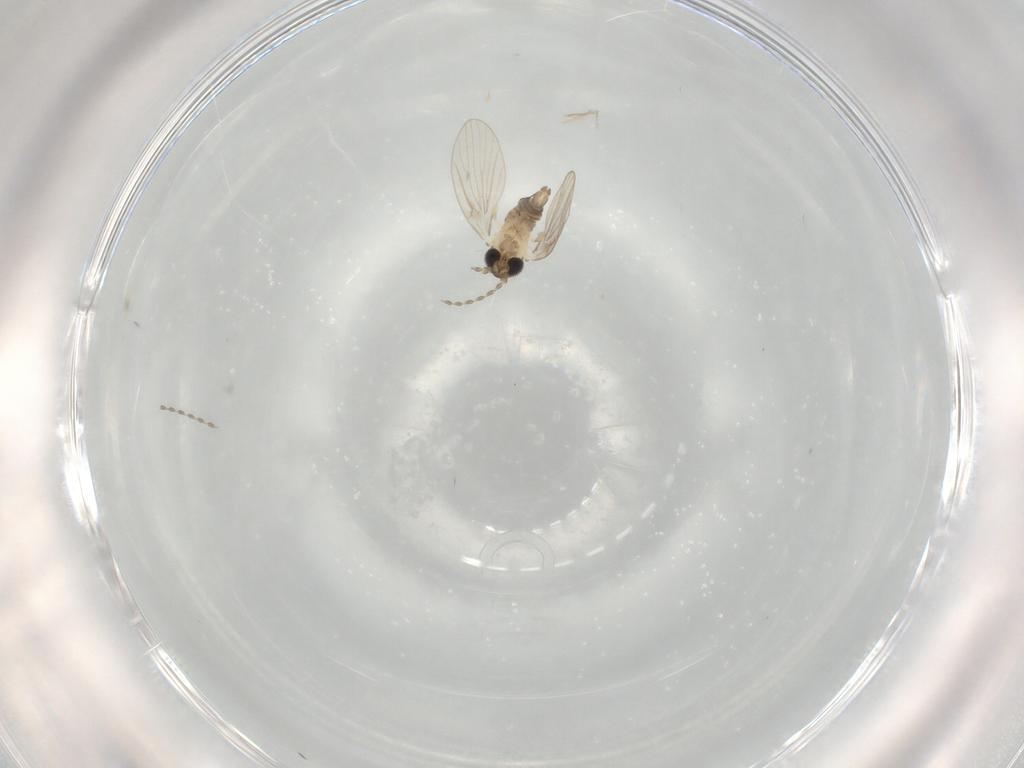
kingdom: Animalia
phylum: Arthropoda
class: Insecta
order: Diptera
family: Psychodidae
